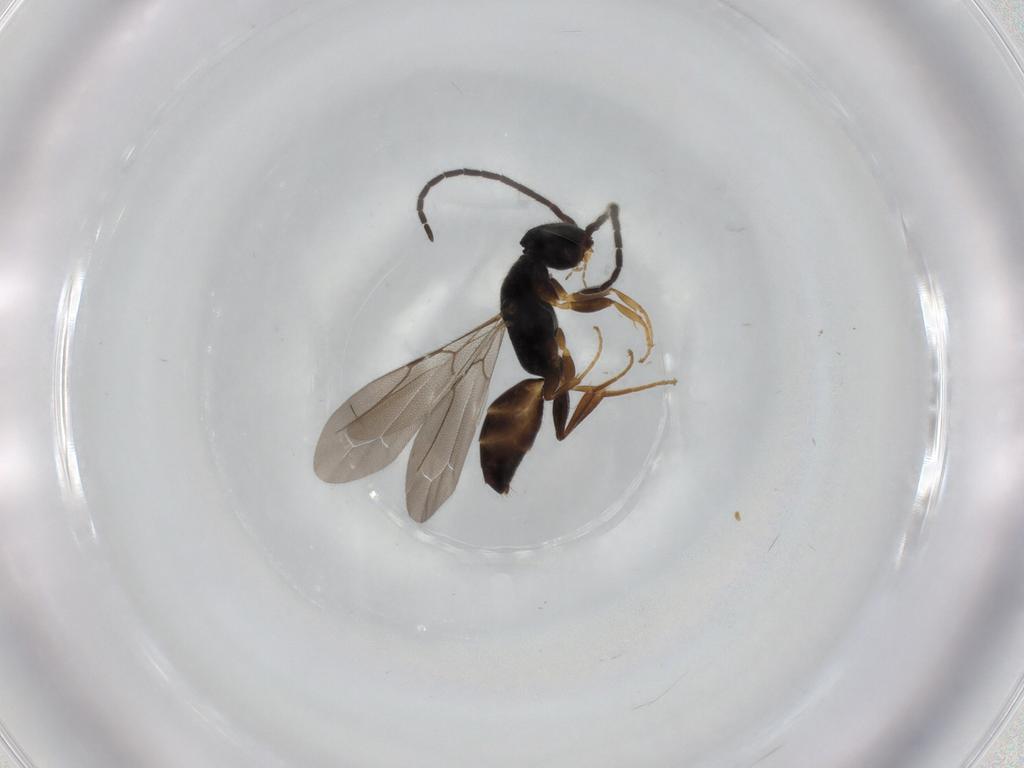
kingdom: Animalia
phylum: Arthropoda
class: Insecta
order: Hymenoptera
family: Bethylidae
